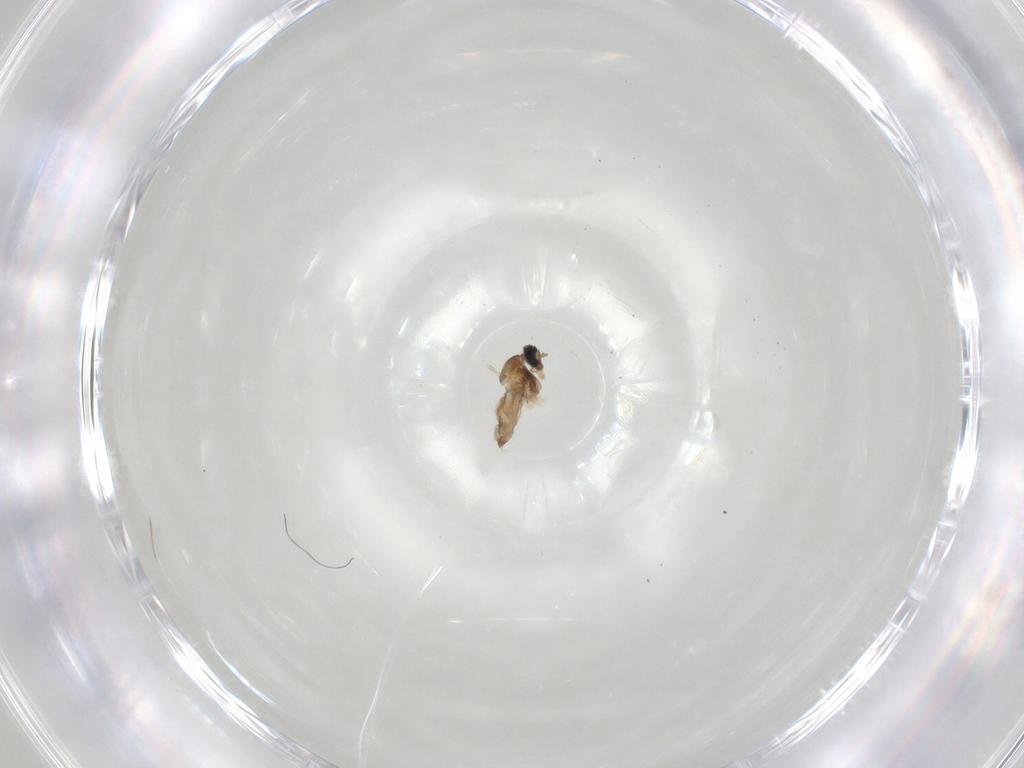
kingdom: Animalia
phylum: Arthropoda
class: Insecta
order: Diptera
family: Cecidomyiidae
